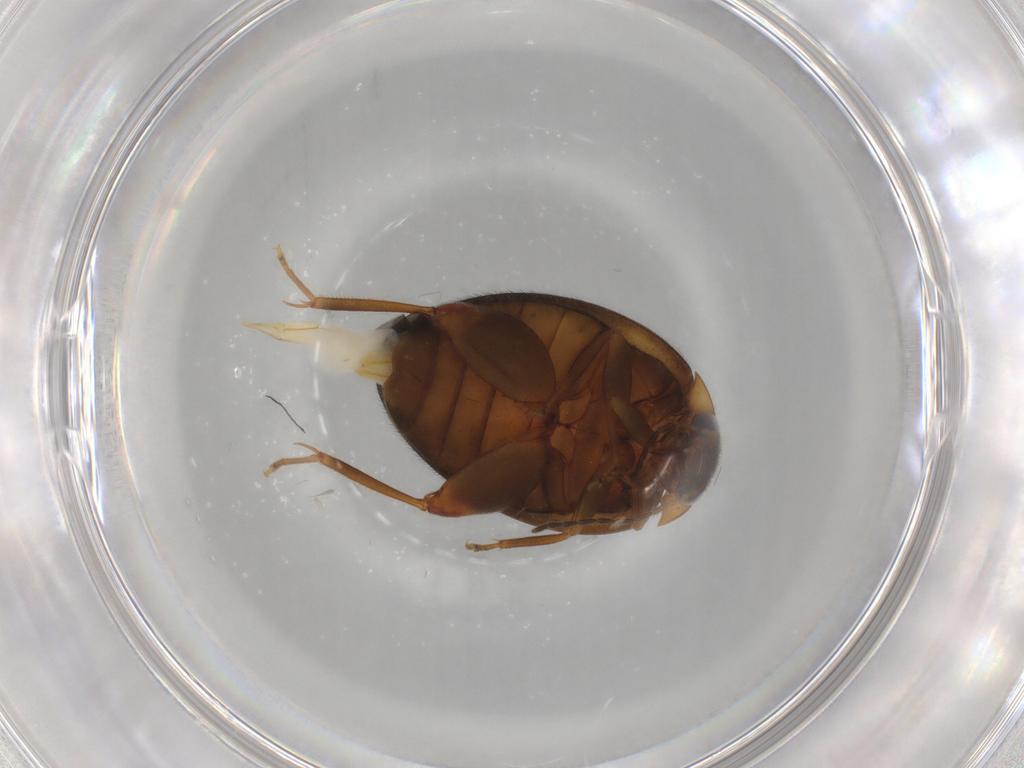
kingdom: Animalia
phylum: Arthropoda
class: Insecta
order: Coleoptera
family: Scirtidae
